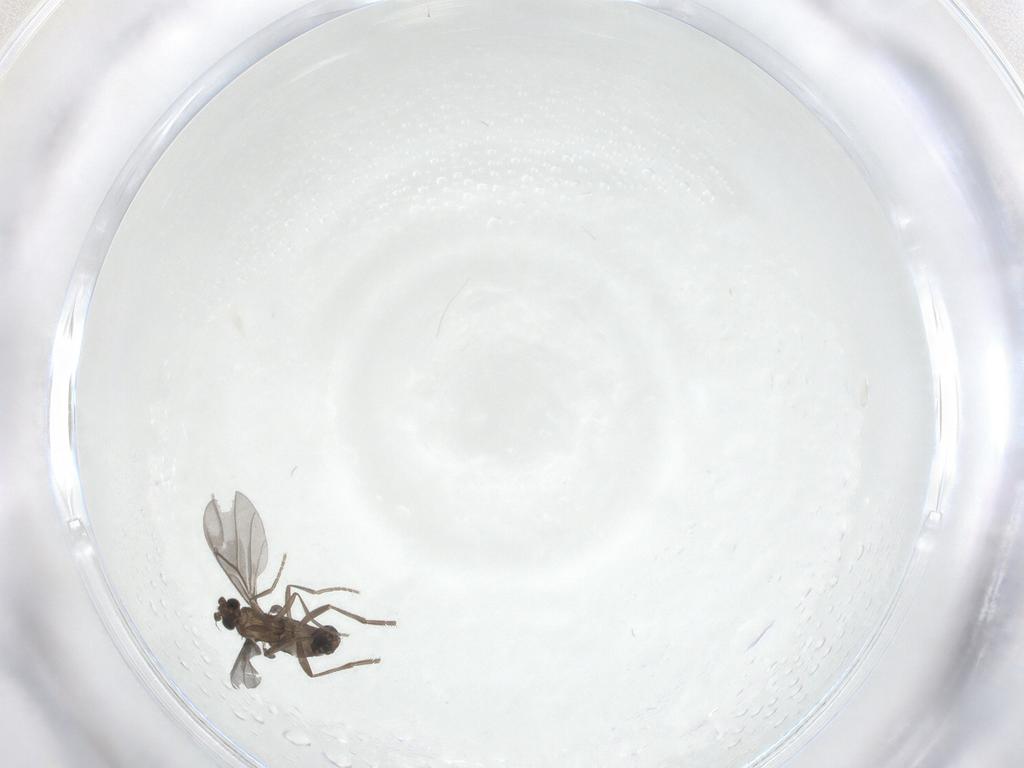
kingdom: Animalia
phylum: Arthropoda
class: Insecta
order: Diptera
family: Cecidomyiidae
